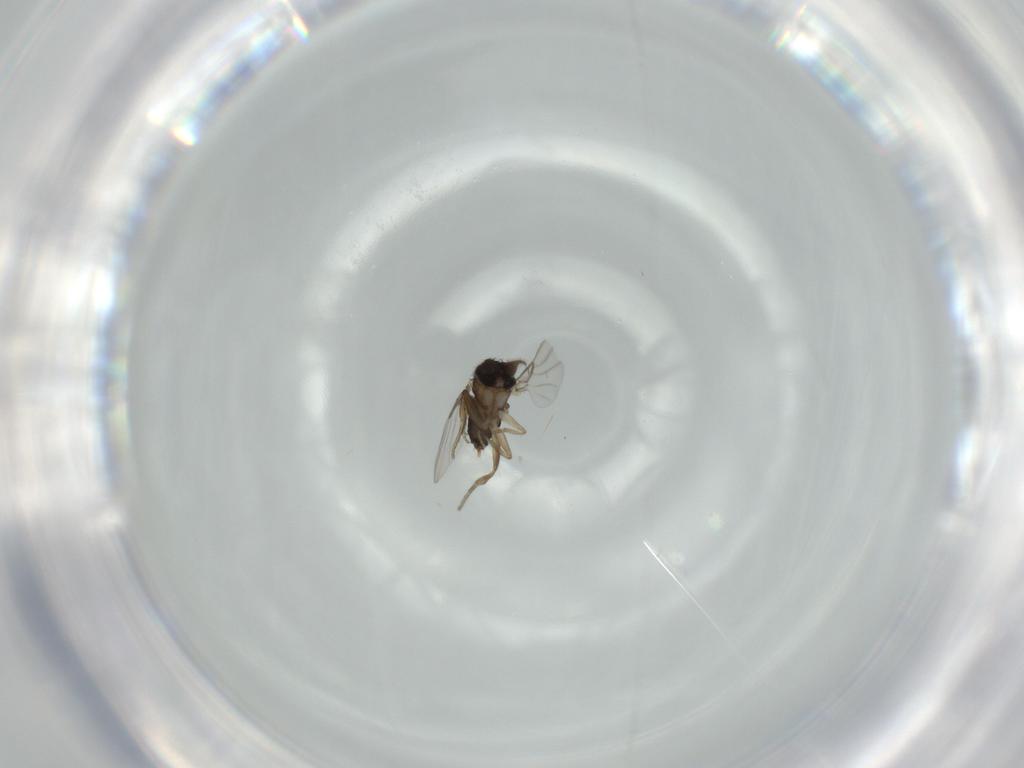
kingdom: Animalia
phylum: Arthropoda
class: Insecta
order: Diptera
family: Phoridae
